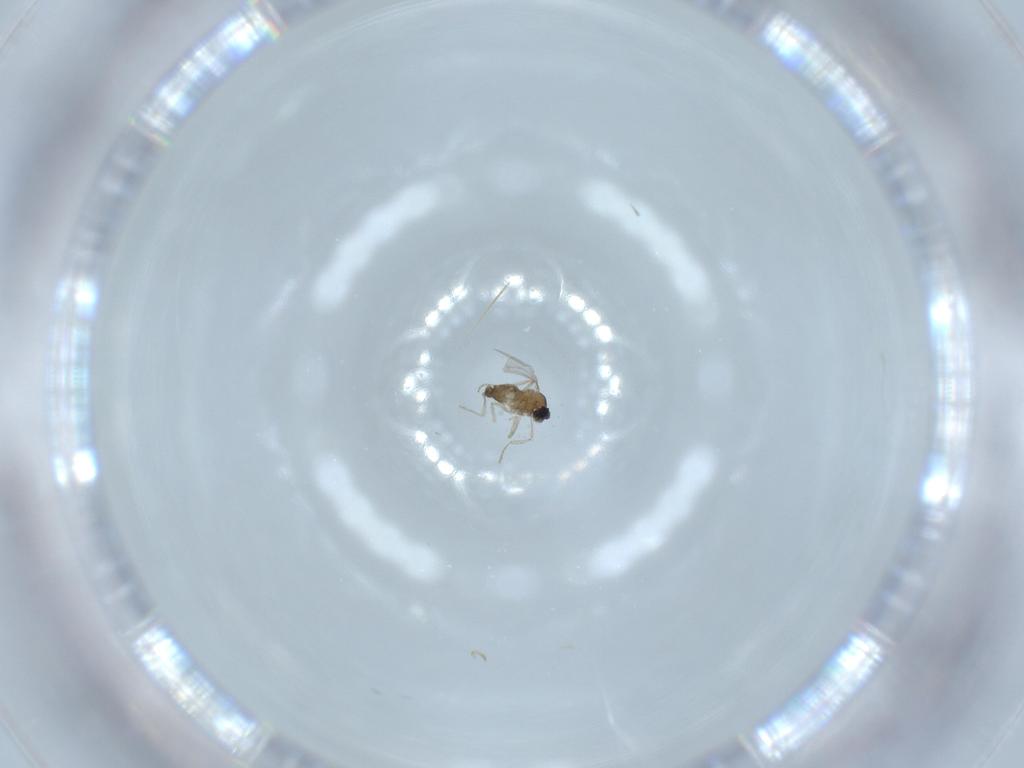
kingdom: Animalia
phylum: Arthropoda
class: Insecta
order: Diptera
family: Cecidomyiidae
